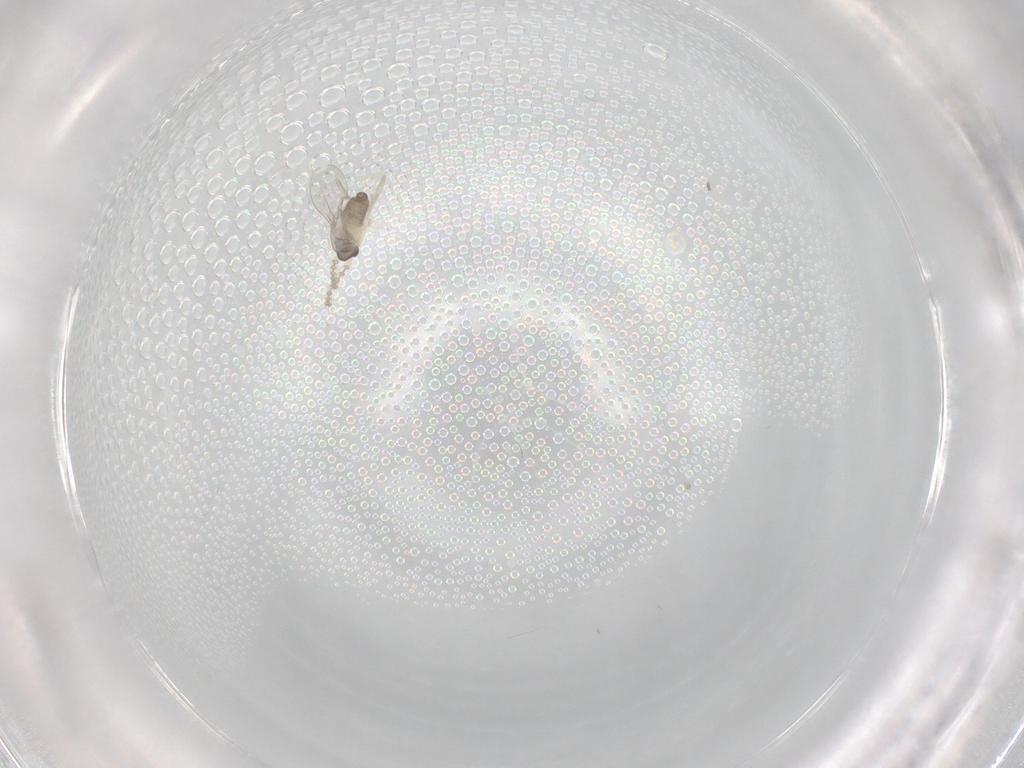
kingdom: Animalia
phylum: Arthropoda
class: Insecta
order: Diptera
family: Cecidomyiidae
